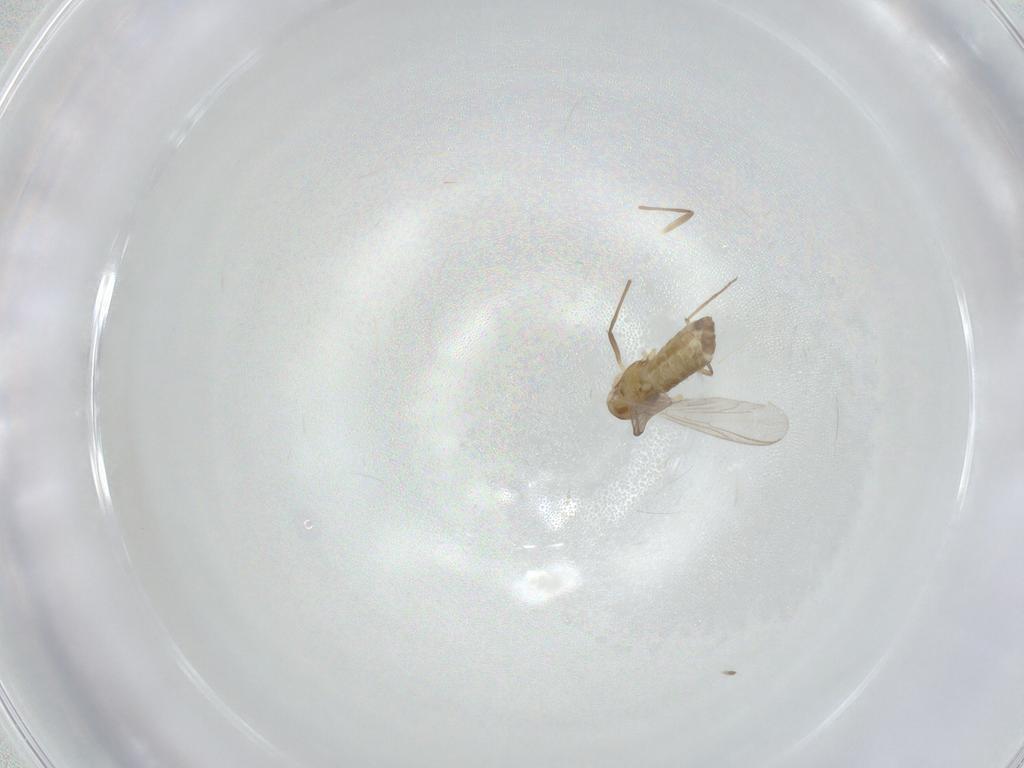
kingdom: Animalia
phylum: Arthropoda
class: Insecta
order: Diptera
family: Chironomidae
